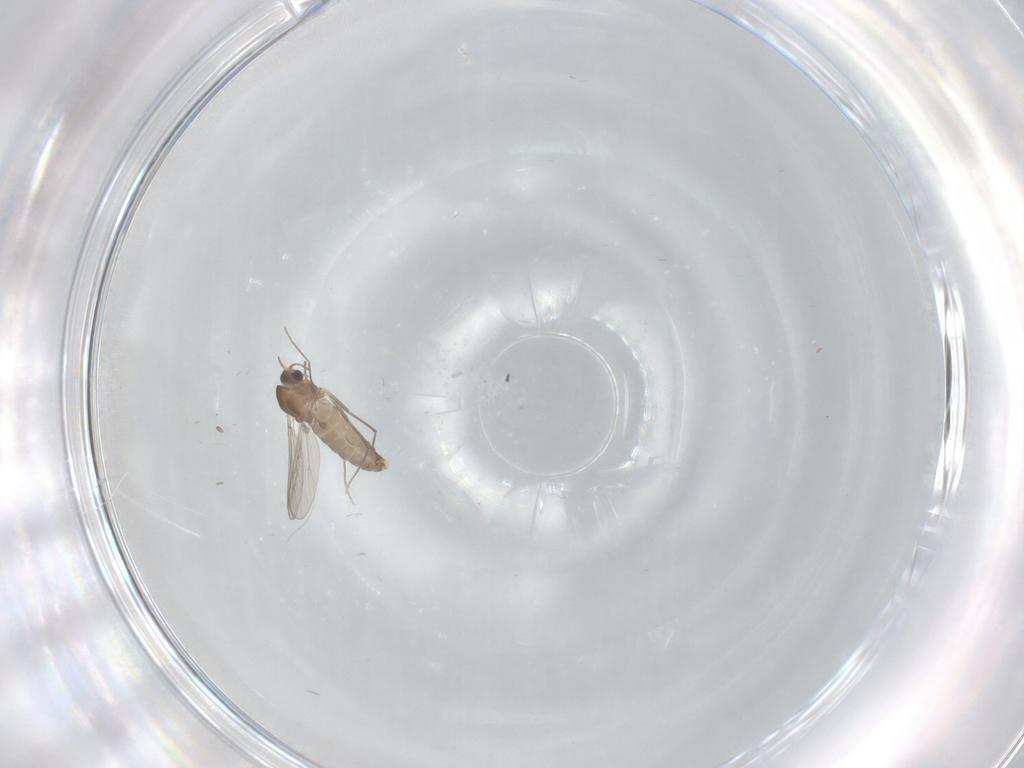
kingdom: Animalia
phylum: Arthropoda
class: Insecta
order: Diptera
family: Chironomidae
